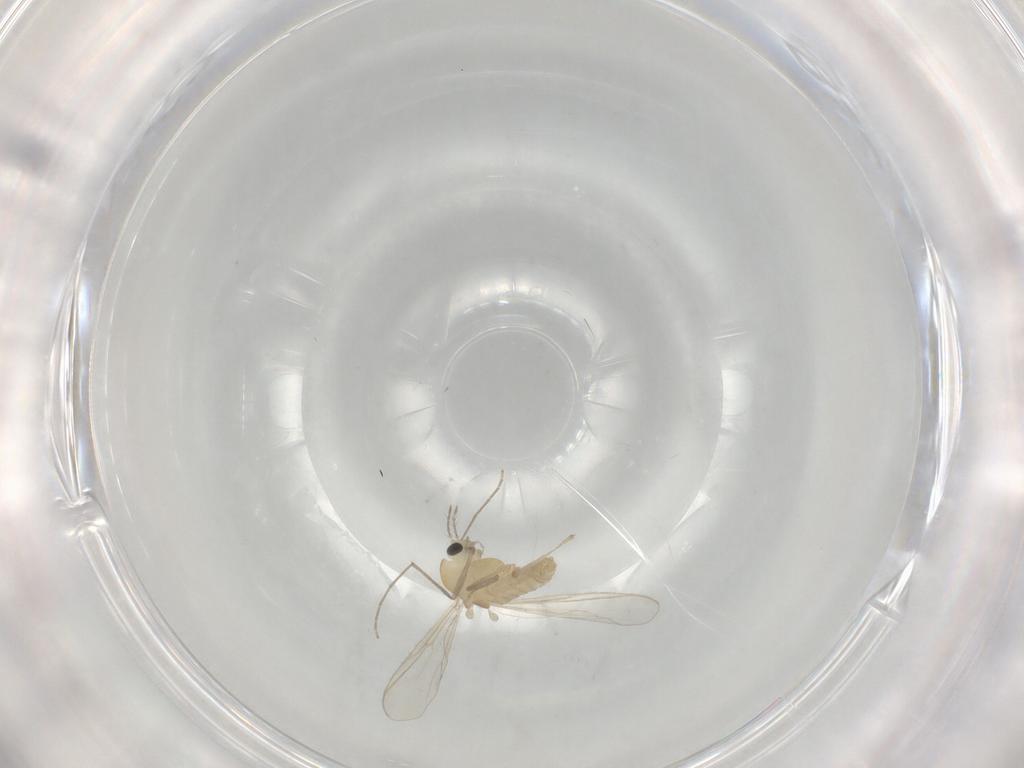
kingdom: Animalia
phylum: Arthropoda
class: Insecta
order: Diptera
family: Chironomidae
